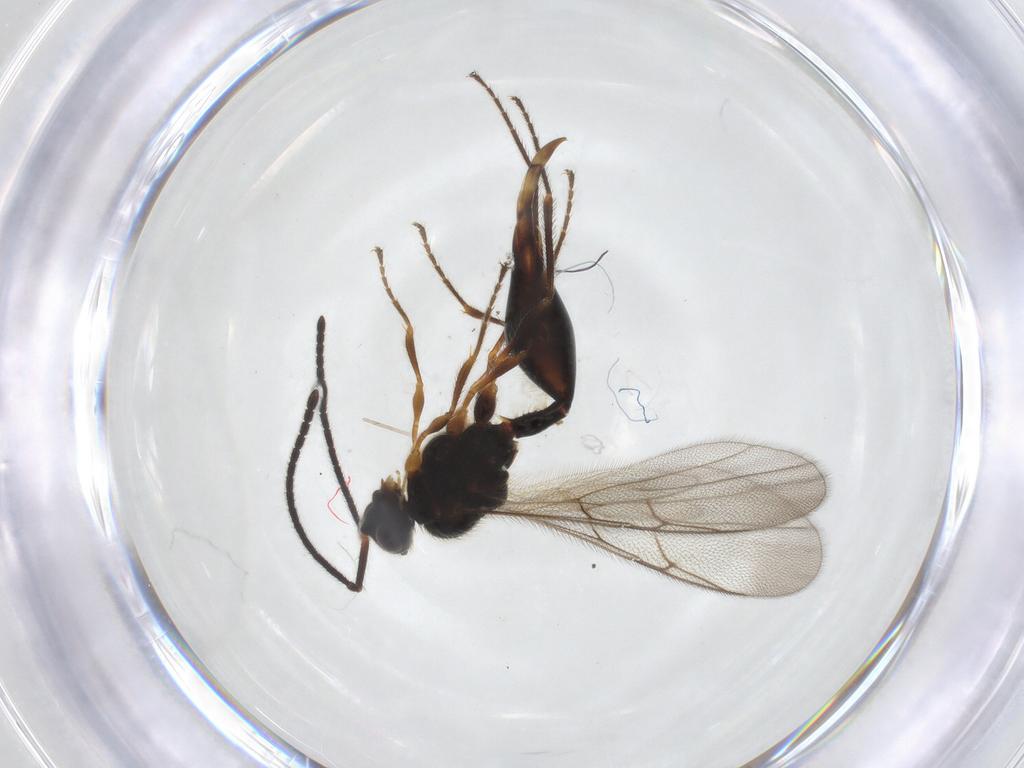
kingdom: Animalia
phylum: Arthropoda
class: Insecta
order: Hymenoptera
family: Diapriidae
